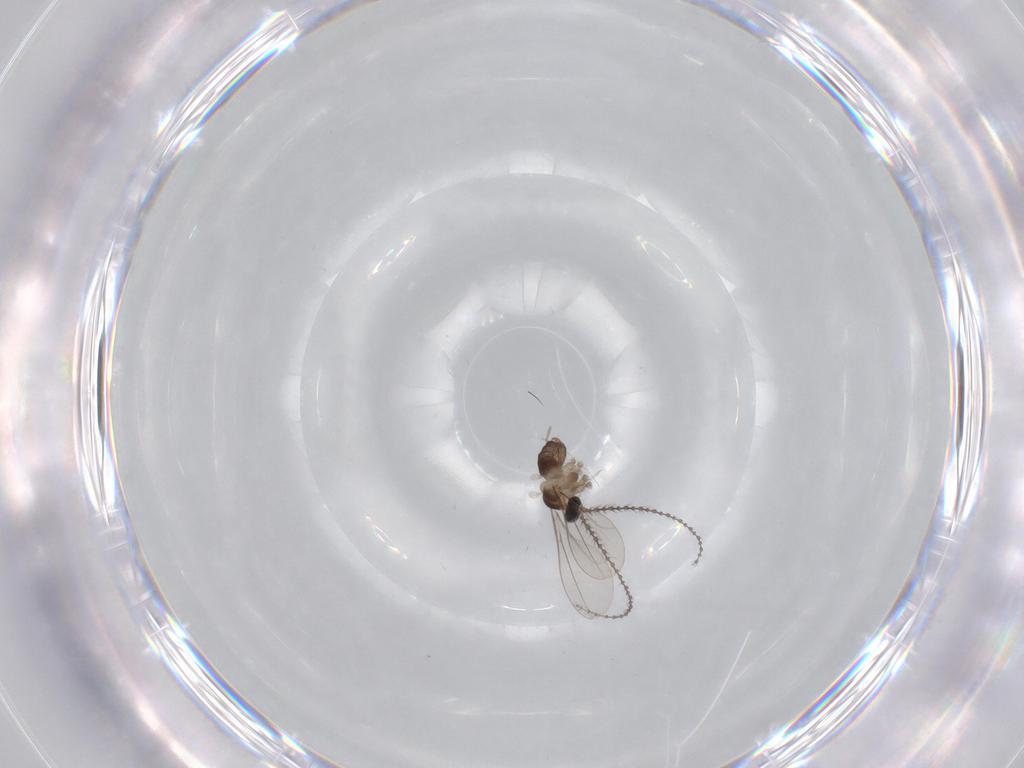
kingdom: Animalia
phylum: Arthropoda
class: Insecta
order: Diptera
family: Cecidomyiidae
